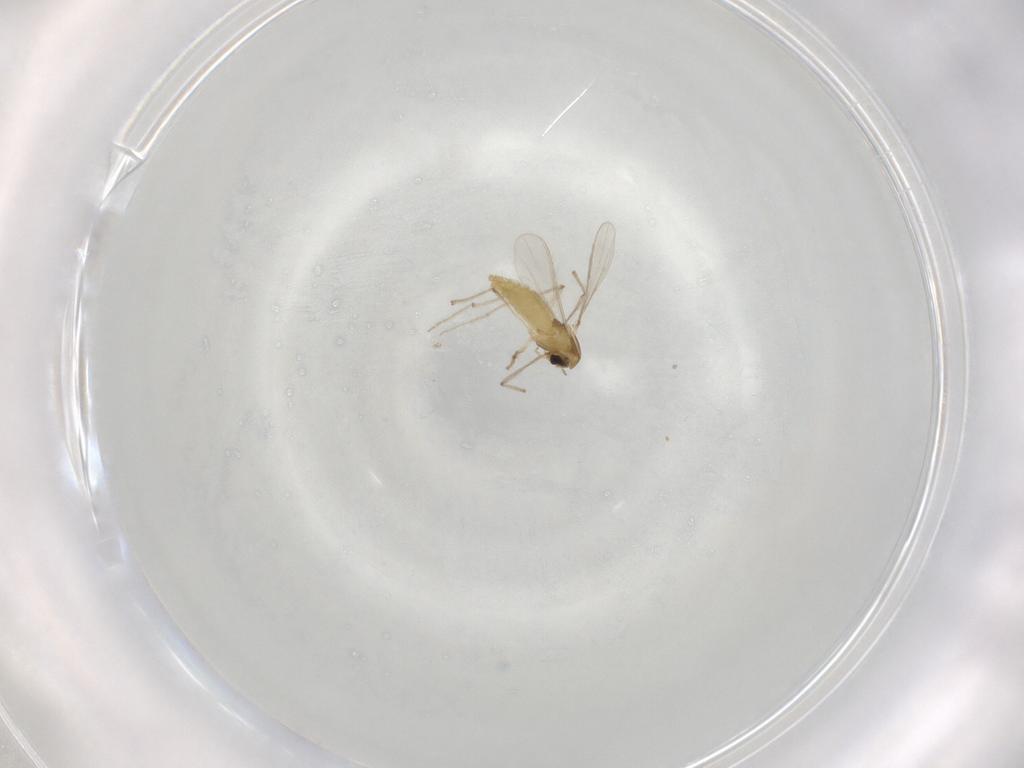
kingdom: Animalia
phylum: Arthropoda
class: Insecta
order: Diptera
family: Chironomidae
